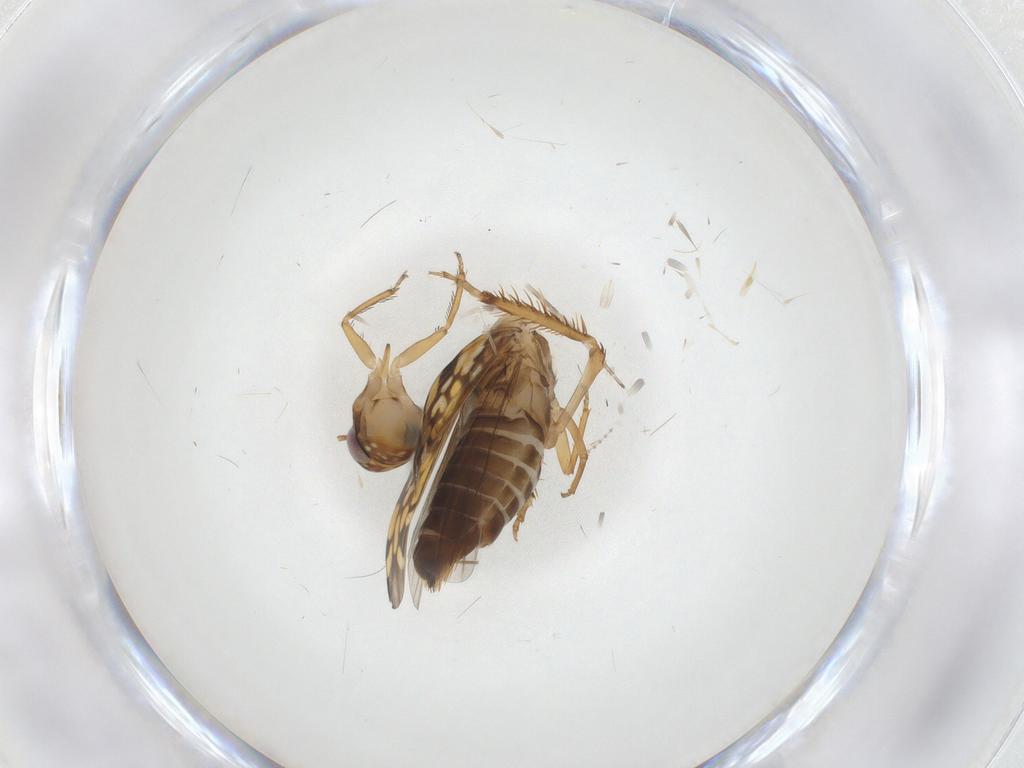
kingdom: Animalia
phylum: Arthropoda
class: Insecta
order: Hemiptera
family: Cicadellidae
